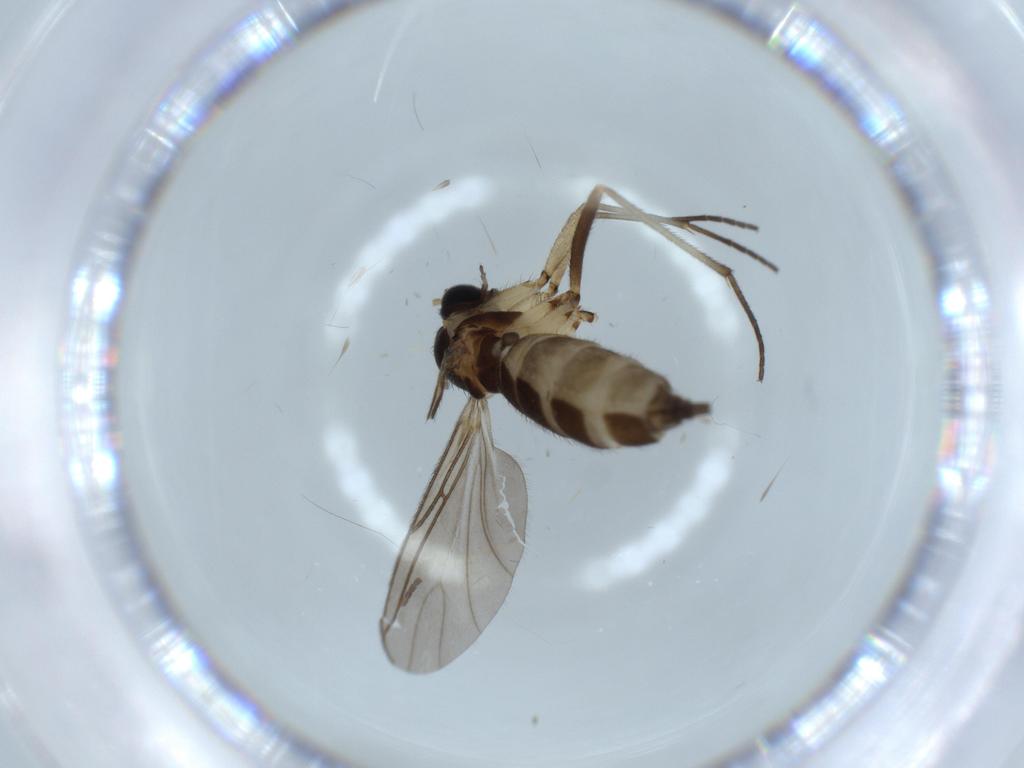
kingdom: Animalia
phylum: Arthropoda
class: Insecta
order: Diptera
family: Sciaridae
